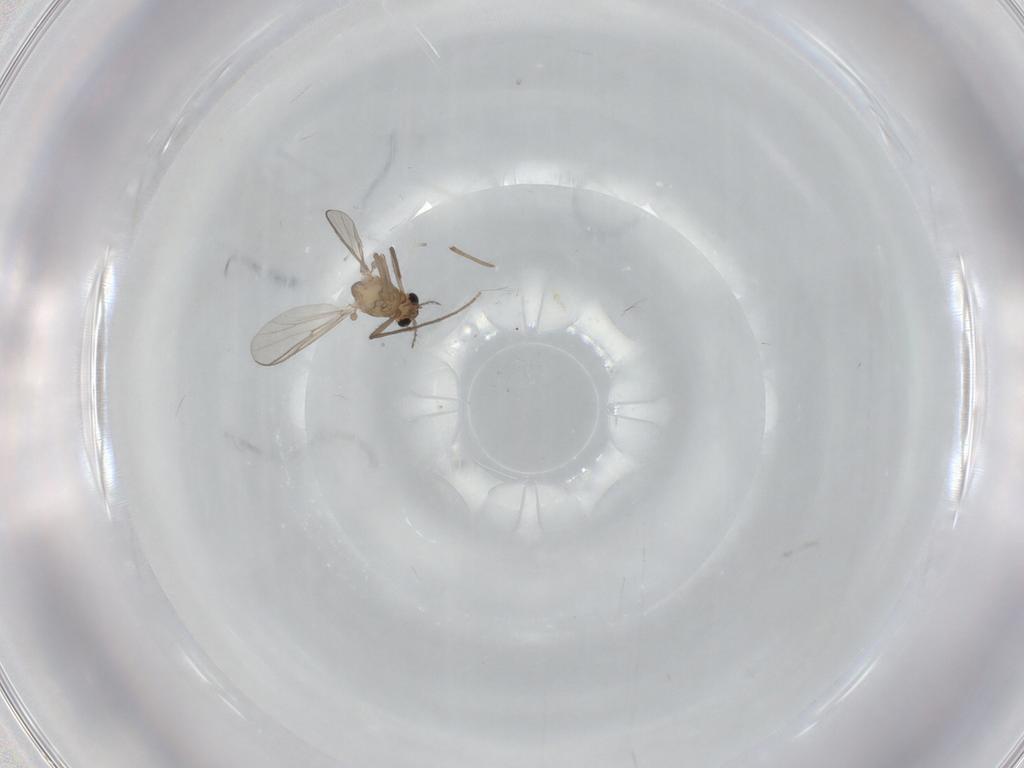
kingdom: Animalia
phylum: Arthropoda
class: Insecta
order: Diptera
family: Chironomidae
